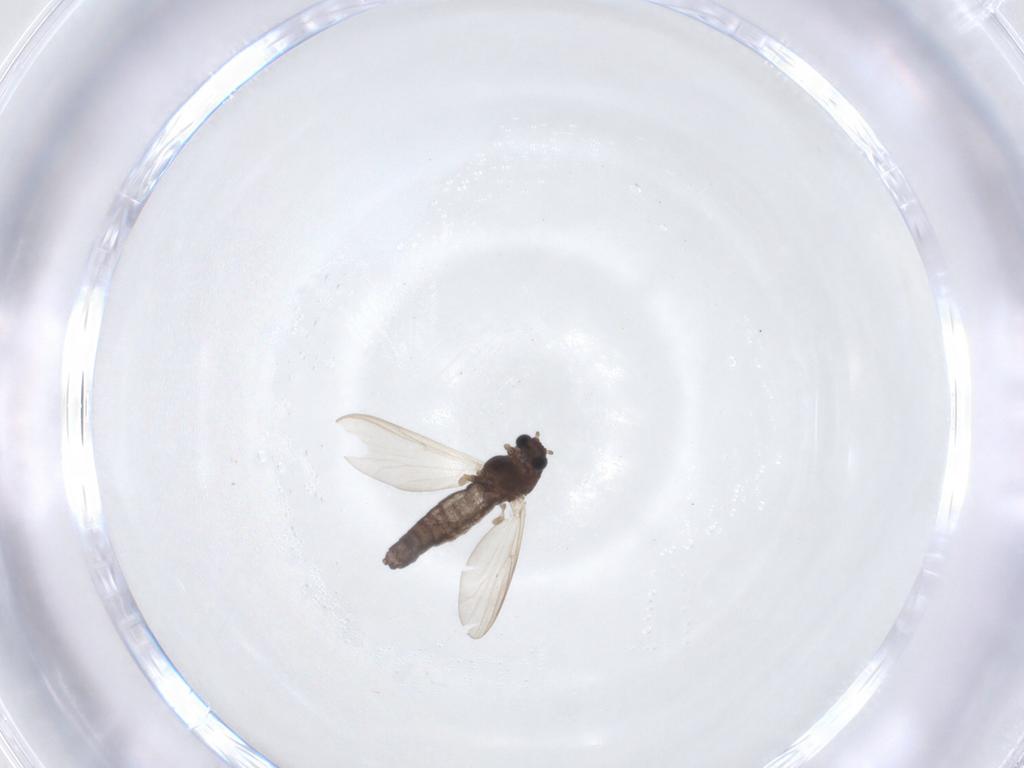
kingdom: Animalia
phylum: Arthropoda
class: Insecta
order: Diptera
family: Chironomidae
